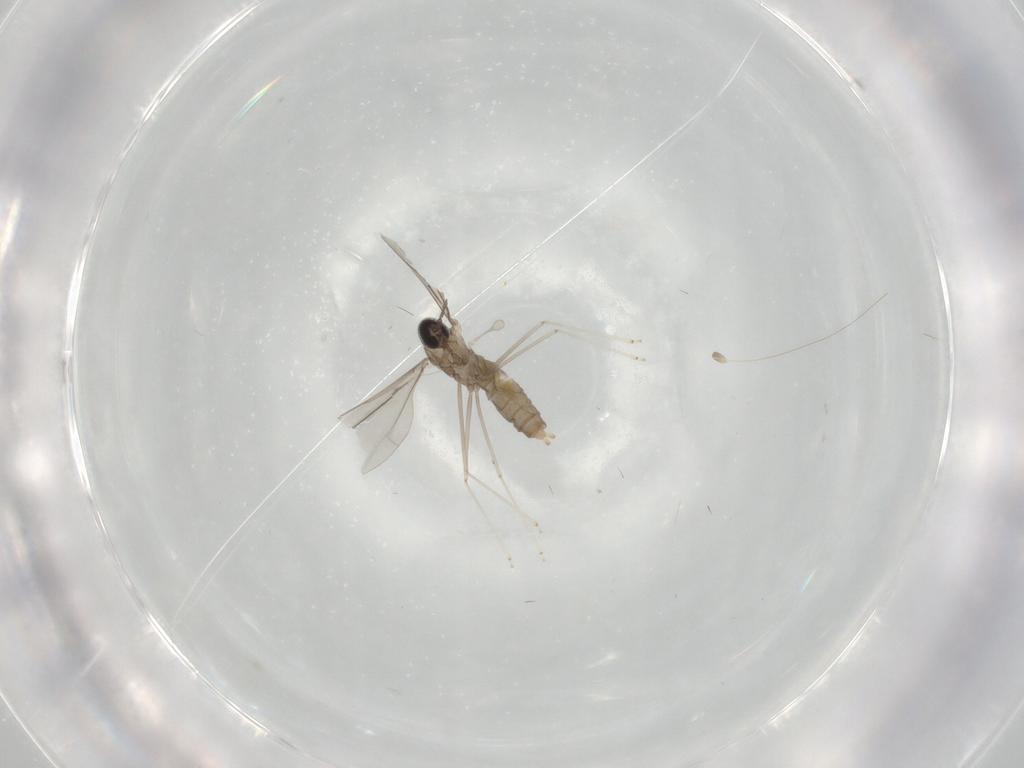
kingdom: Animalia
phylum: Arthropoda
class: Insecta
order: Diptera
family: Cecidomyiidae
